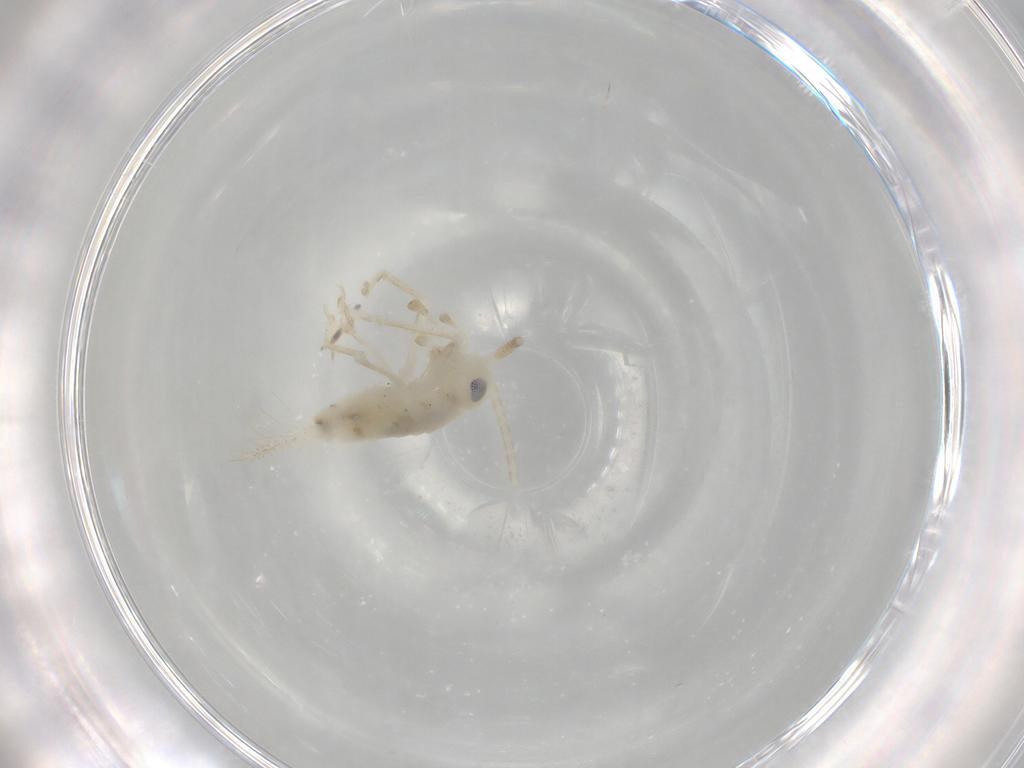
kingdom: Animalia
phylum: Arthropoda
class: Insecta
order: Orthoptera
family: Trigonidiidae
